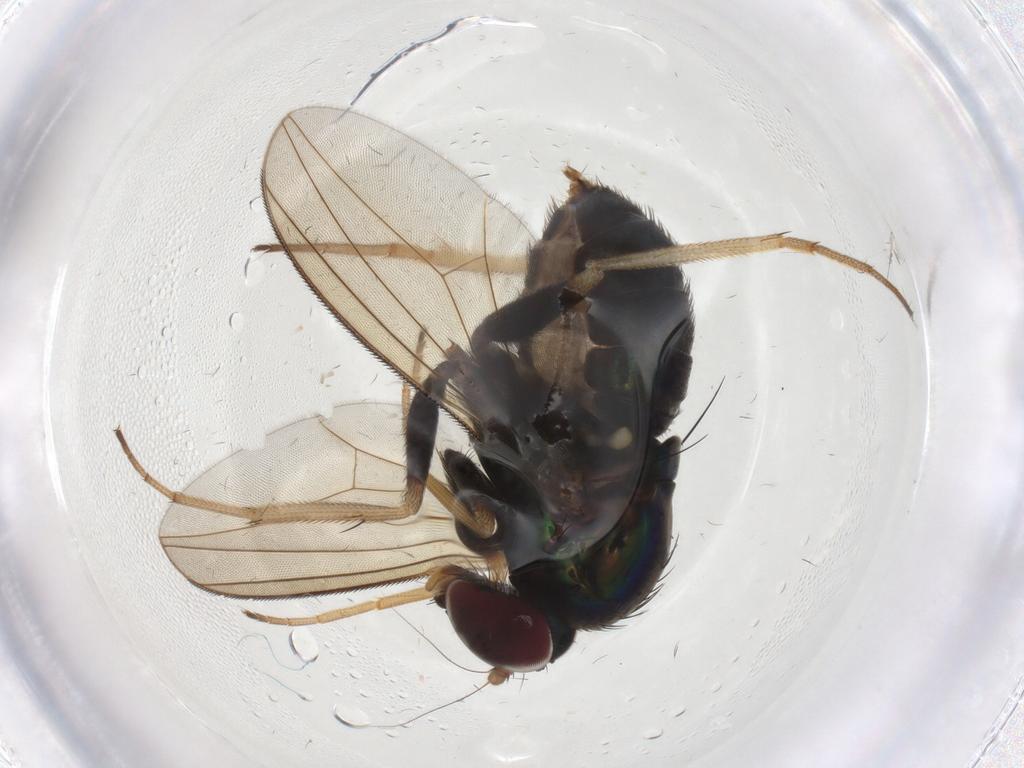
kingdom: Animalia
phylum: Arthropoda
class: Insecta
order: Diptera
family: Dolichopodidae
